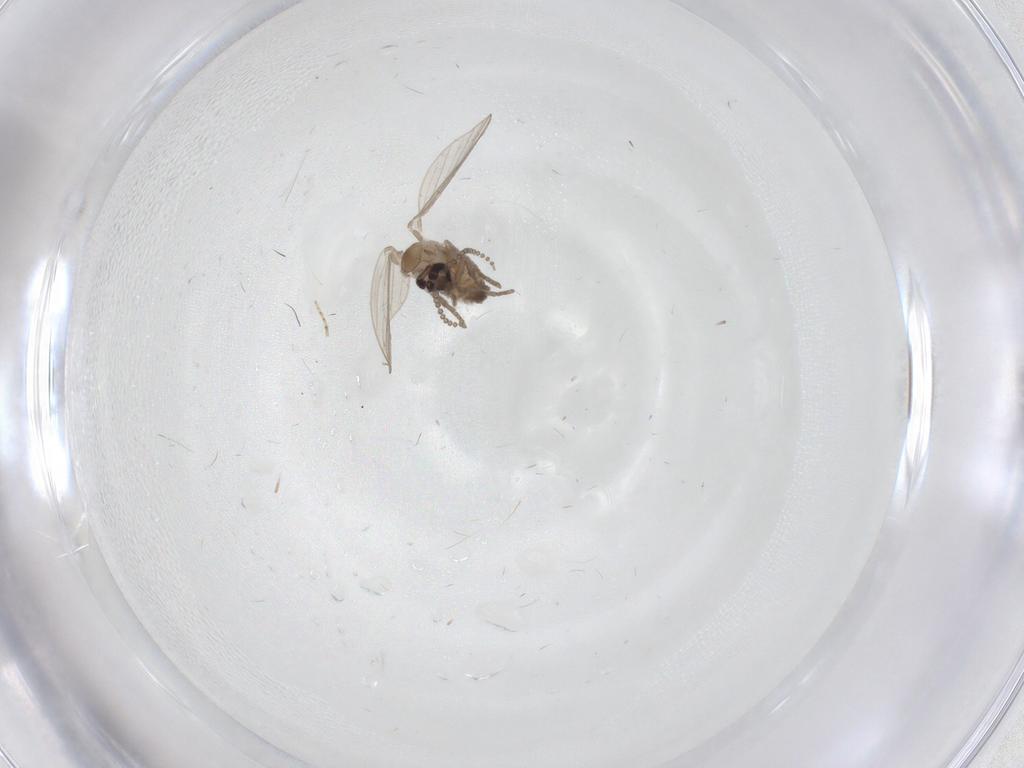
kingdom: Animalia
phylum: Arthropoda
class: Insecta
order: Diptera
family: Psychodidae
